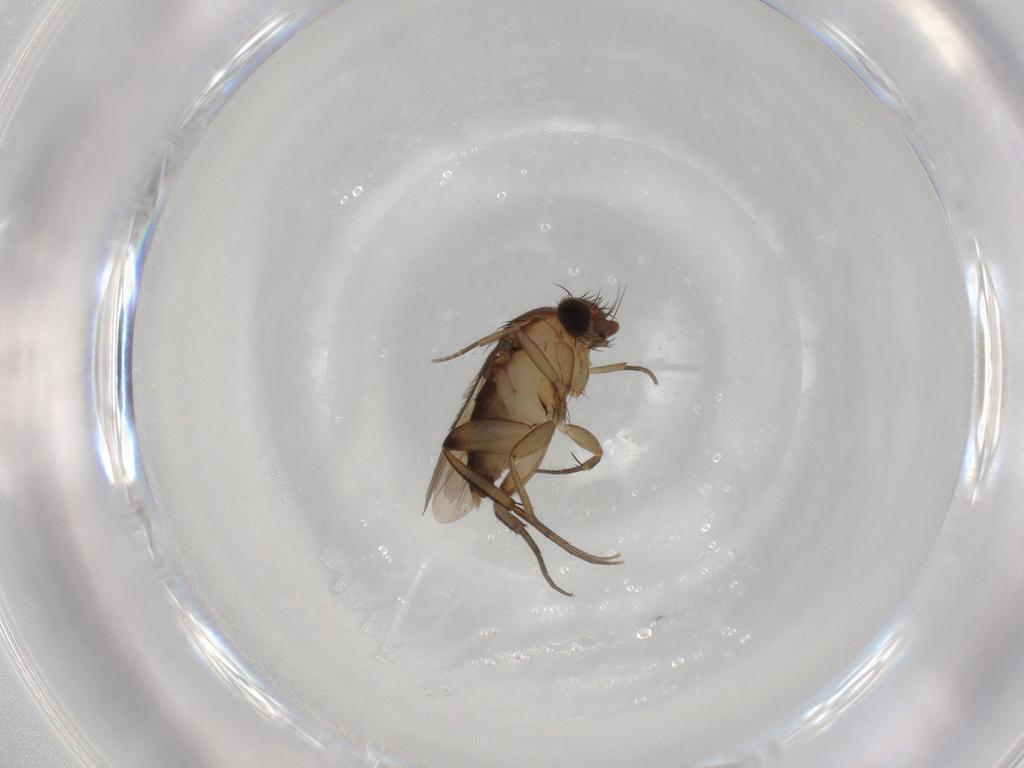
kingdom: Animalia
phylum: Arthropoda
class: Insecta
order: Diptera
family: Phoridae
